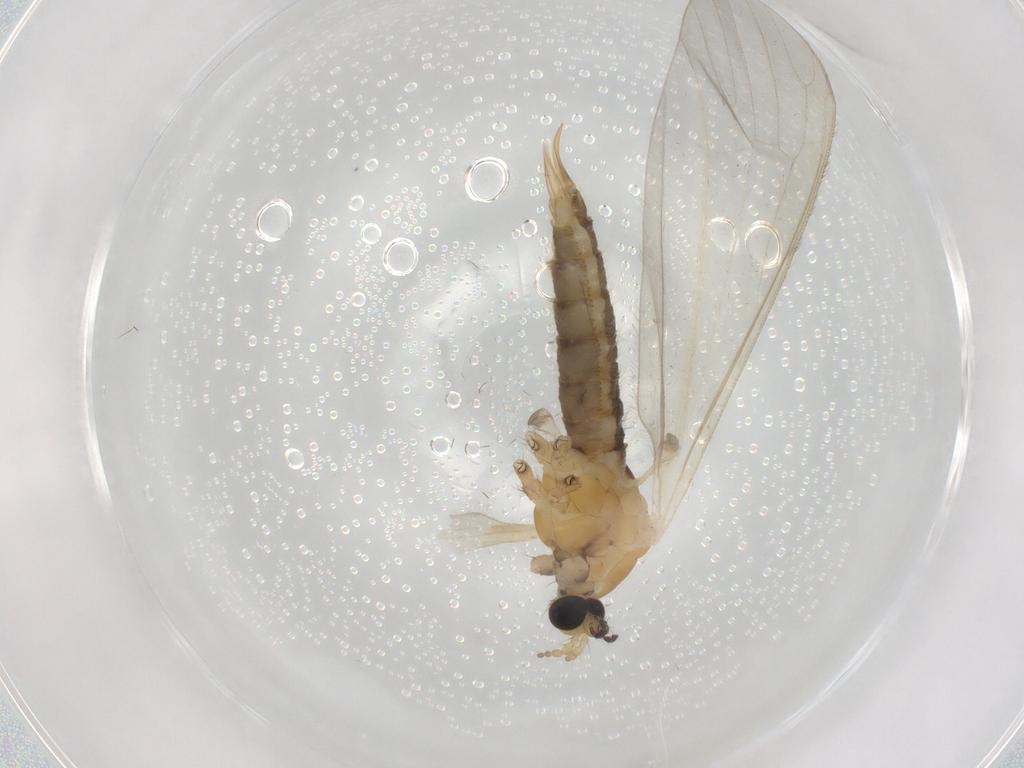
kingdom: Animalia
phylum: Arthropoda
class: Insecta
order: Diptera
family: Limoniidae
